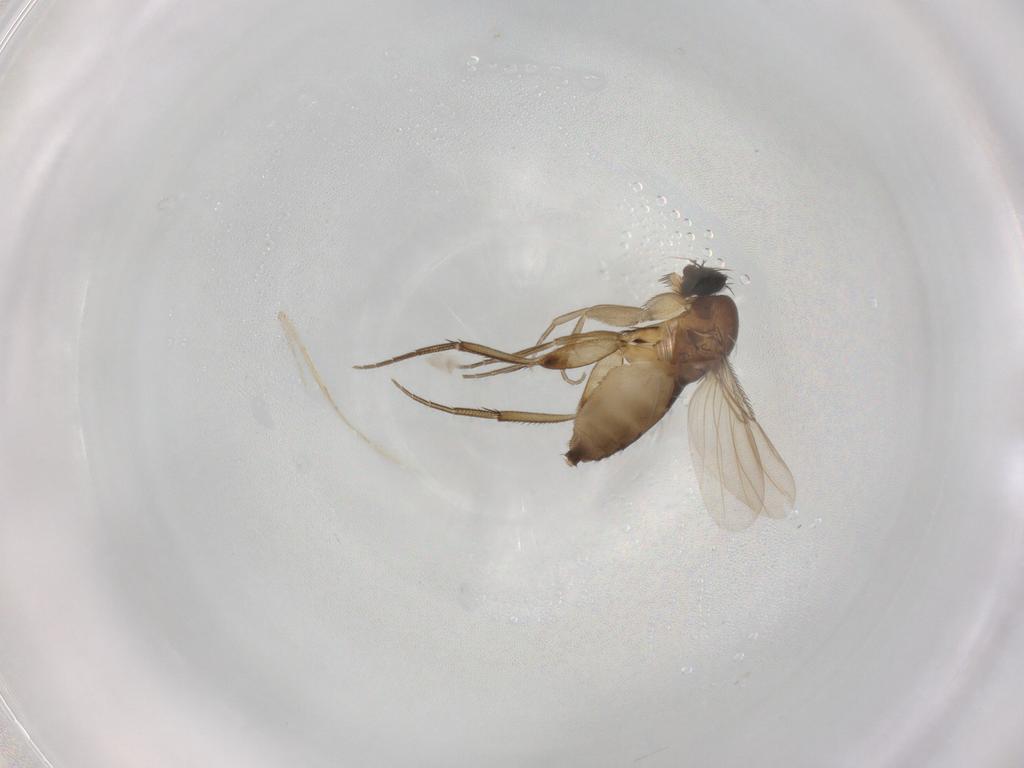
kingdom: Animalia
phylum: Arthropoda
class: Insecta
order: Diptera
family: Phoridae
